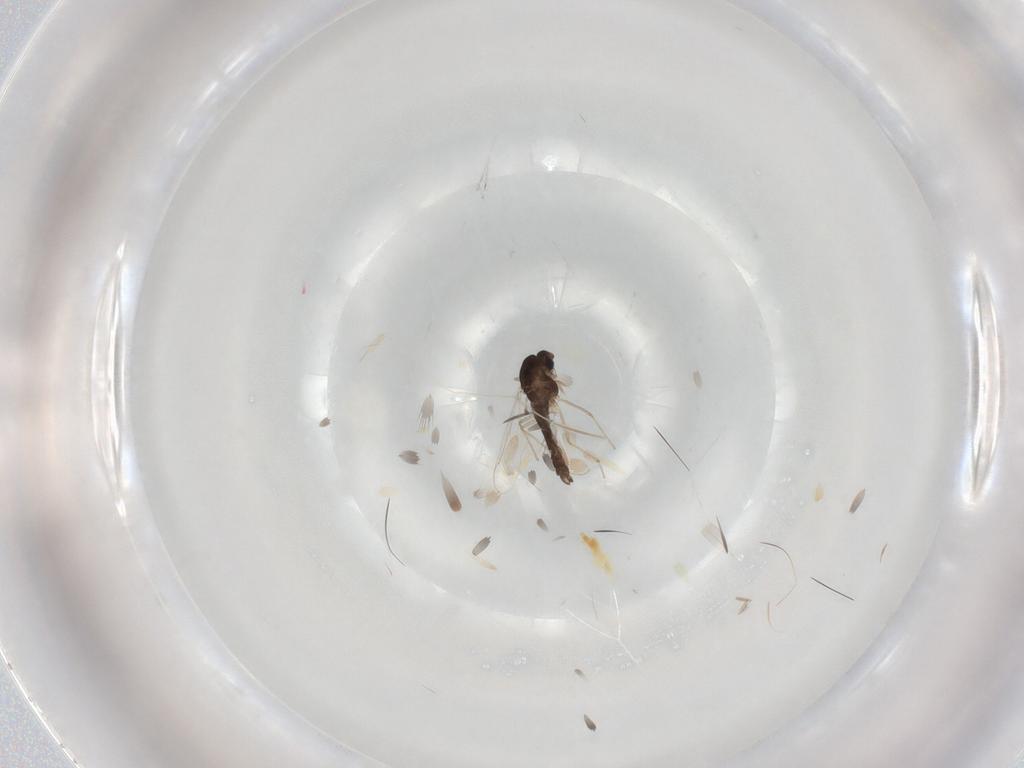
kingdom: Animalia
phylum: Arthropoda
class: Insecta
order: Diptera
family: Chironomidae
